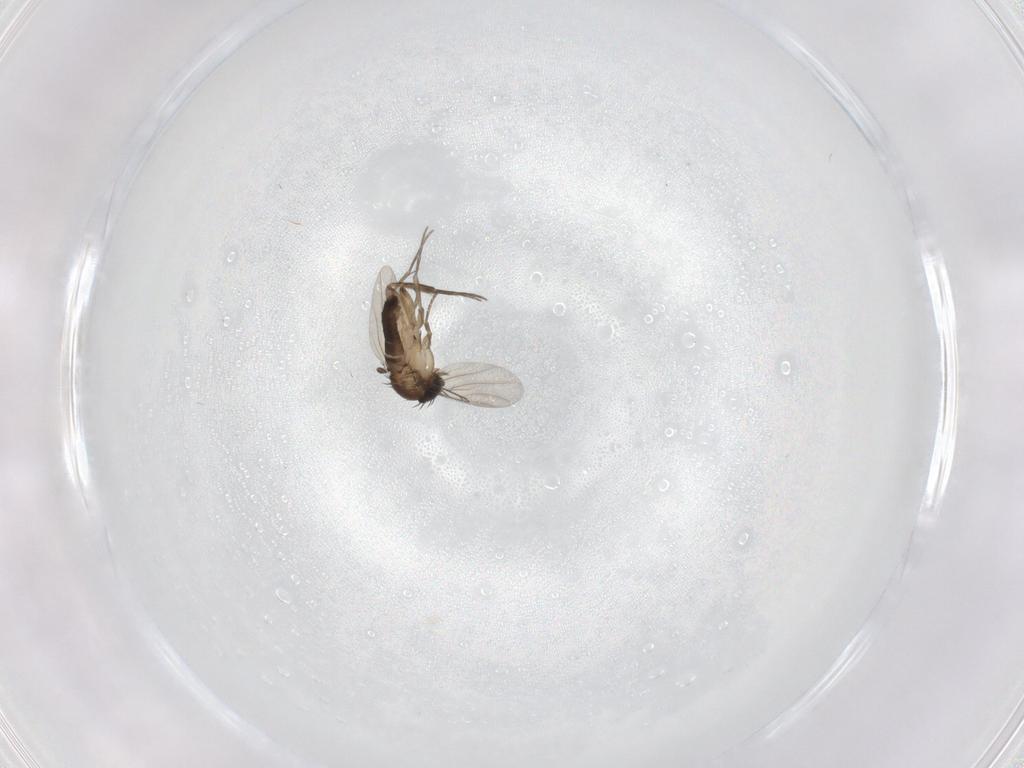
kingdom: Animalia
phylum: Arthropoda
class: Insecta
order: Diptera
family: Phoridae
